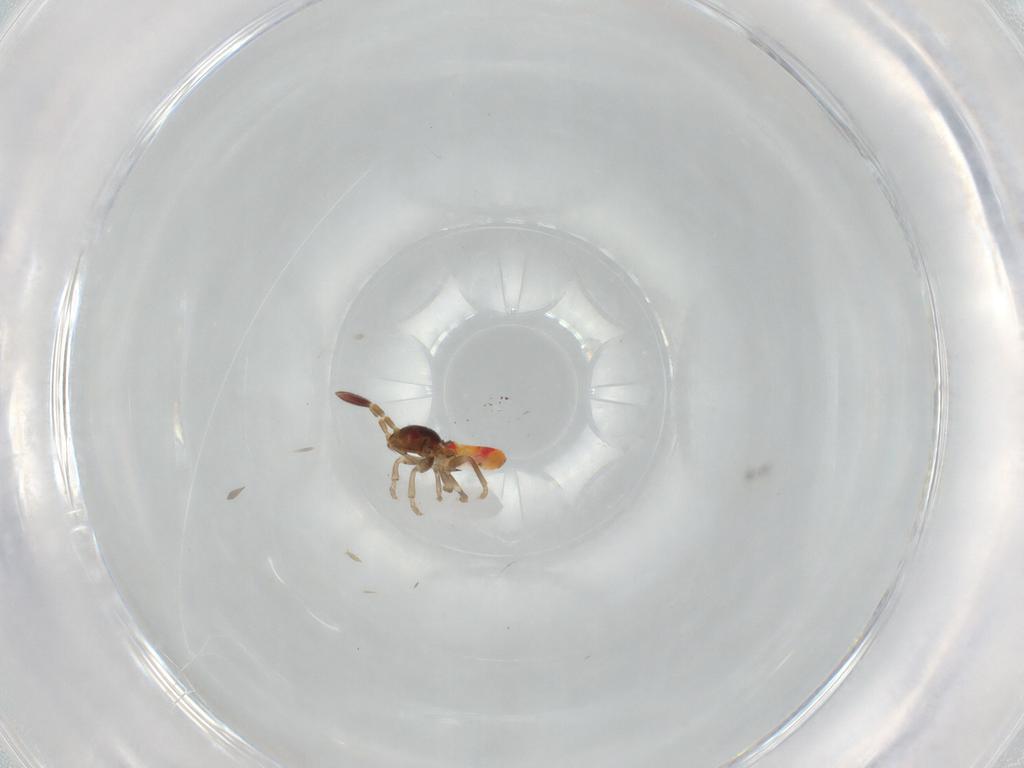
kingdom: Animalia
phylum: Arthropoda
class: Insecta
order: Hemiptera
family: Rhyparochromidae
